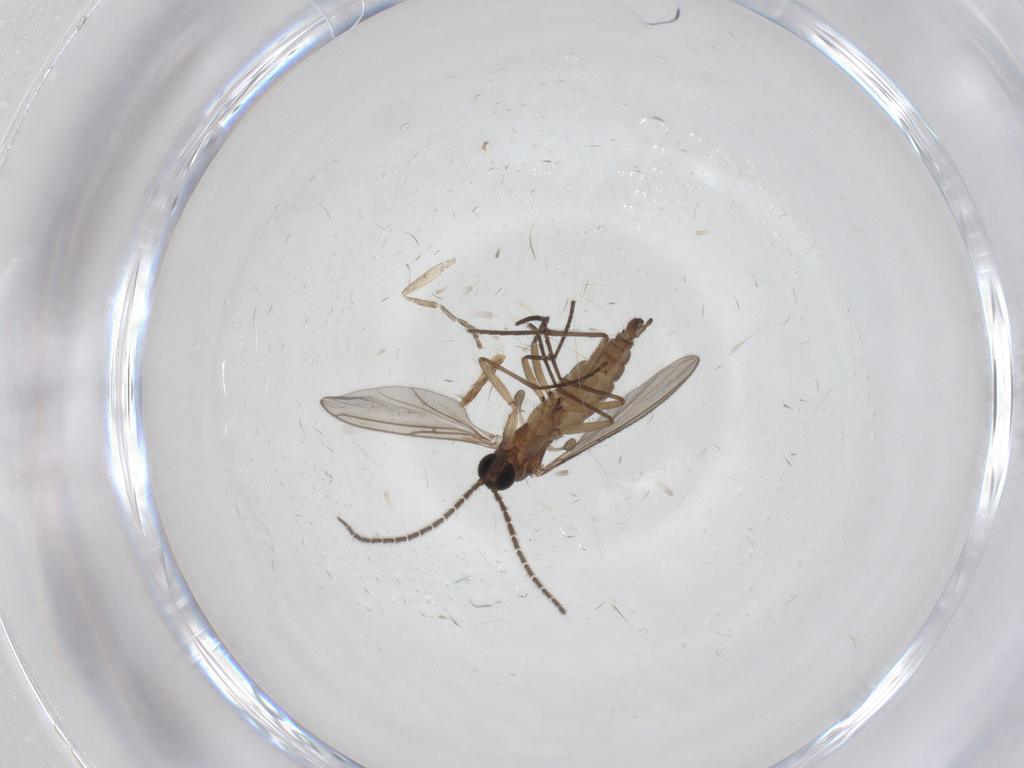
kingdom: Animalia
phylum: Arthropoda
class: Insecta
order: Diptera
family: Sciaridae
